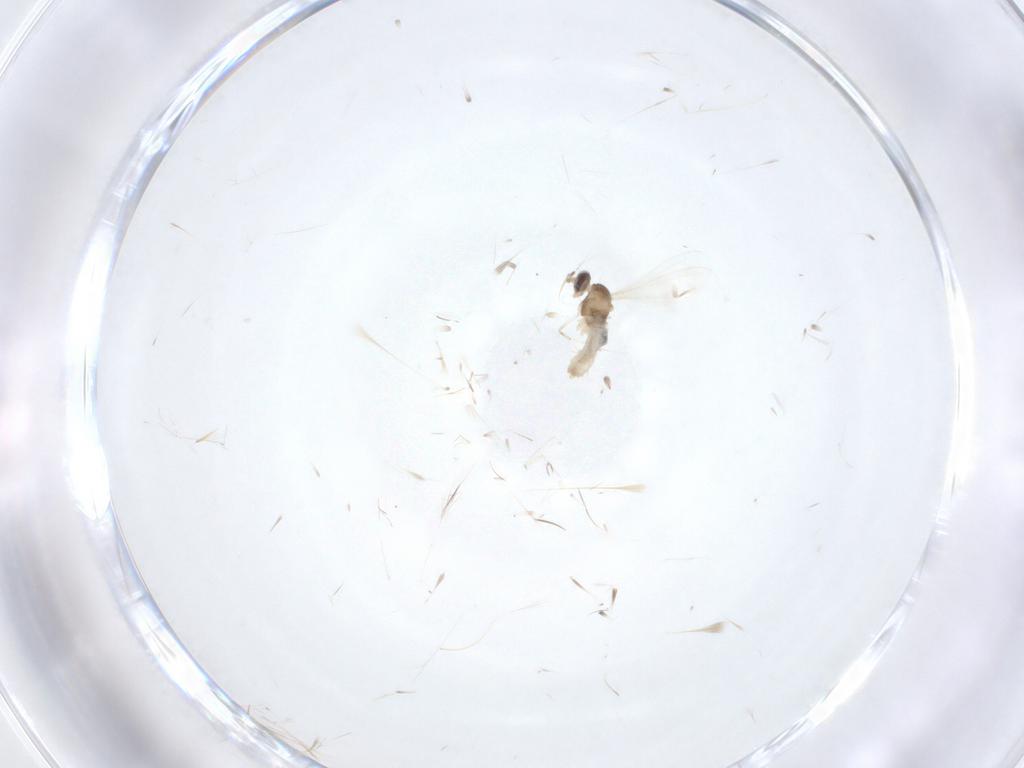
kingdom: Animalia
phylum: Arthropoda
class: Insecta
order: Diptera
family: Cecidomyiidae
